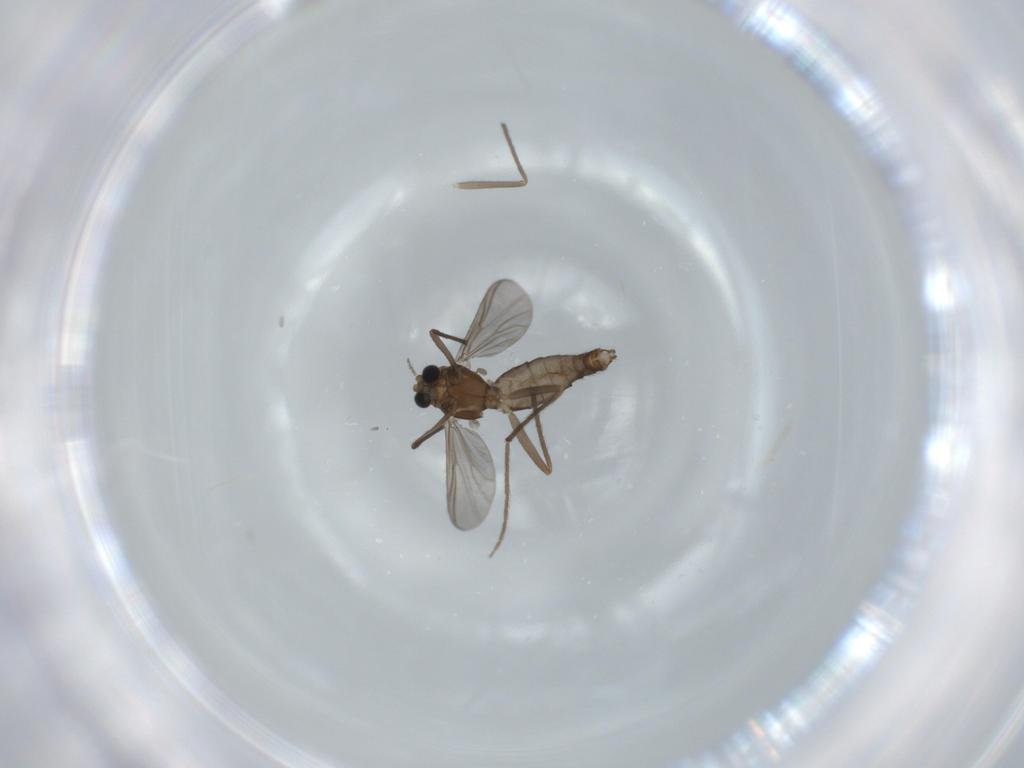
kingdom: Animalia
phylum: Arthropoda
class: Insecta
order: Diptera
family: Chironomidae
